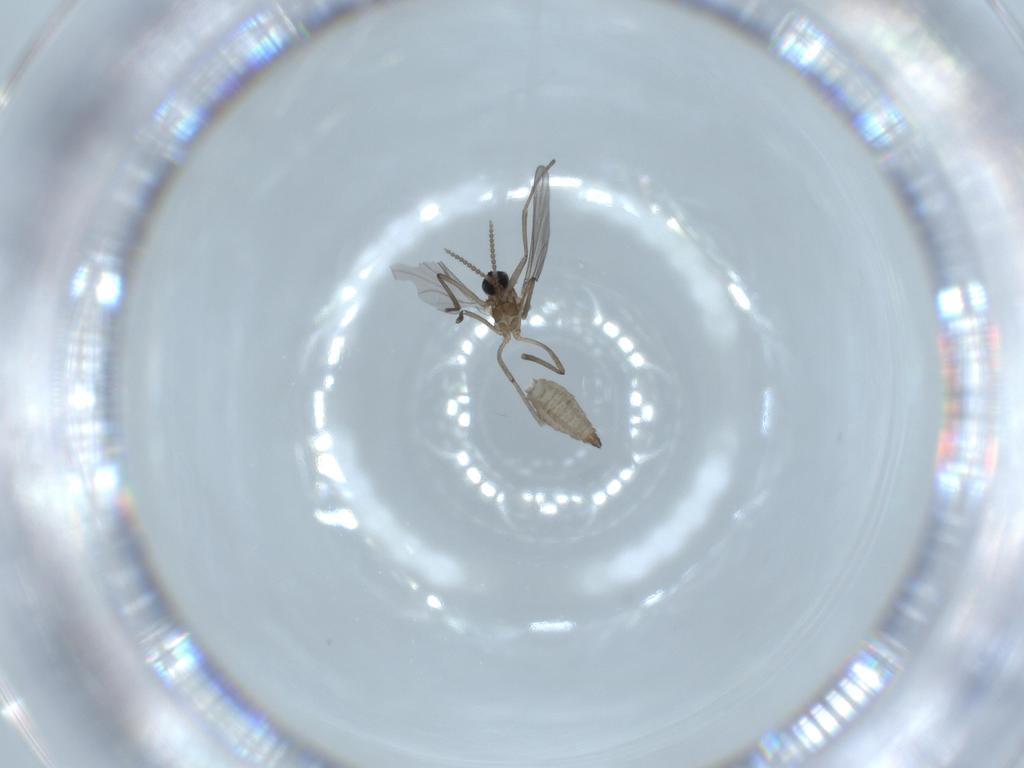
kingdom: Animalia
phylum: Arthropoda
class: Insecta
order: Diptera
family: Cecidomyiidae
